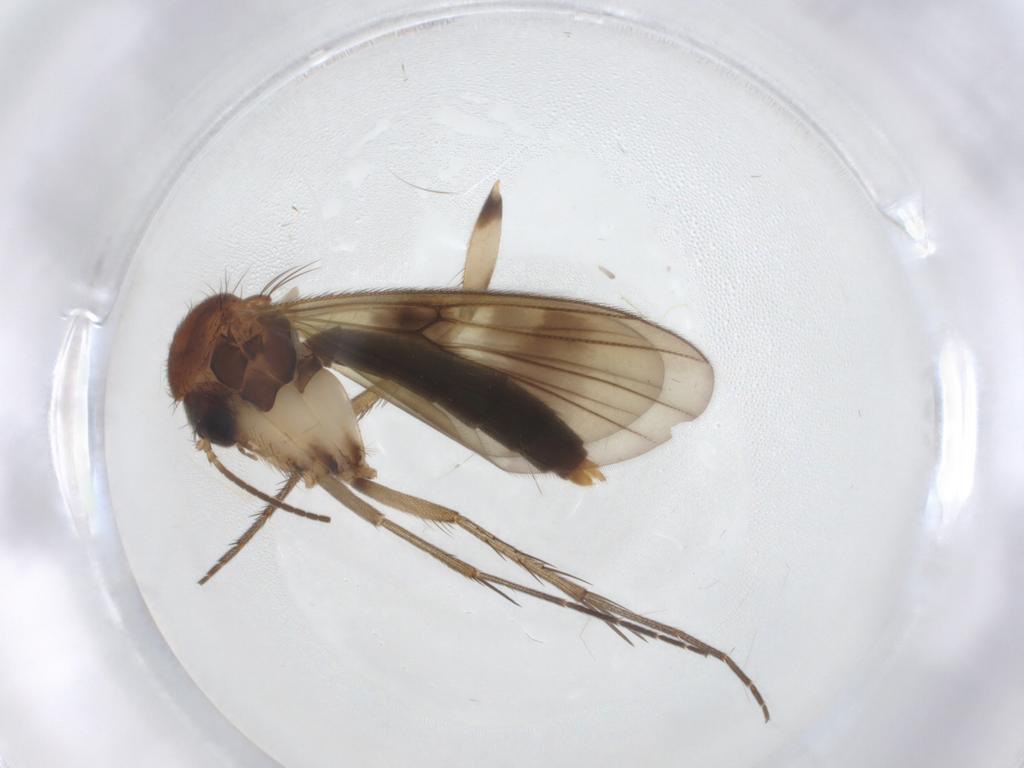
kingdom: Animalia
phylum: Arthropoda
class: Insecta
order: Diptera
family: Mycetophilidae
